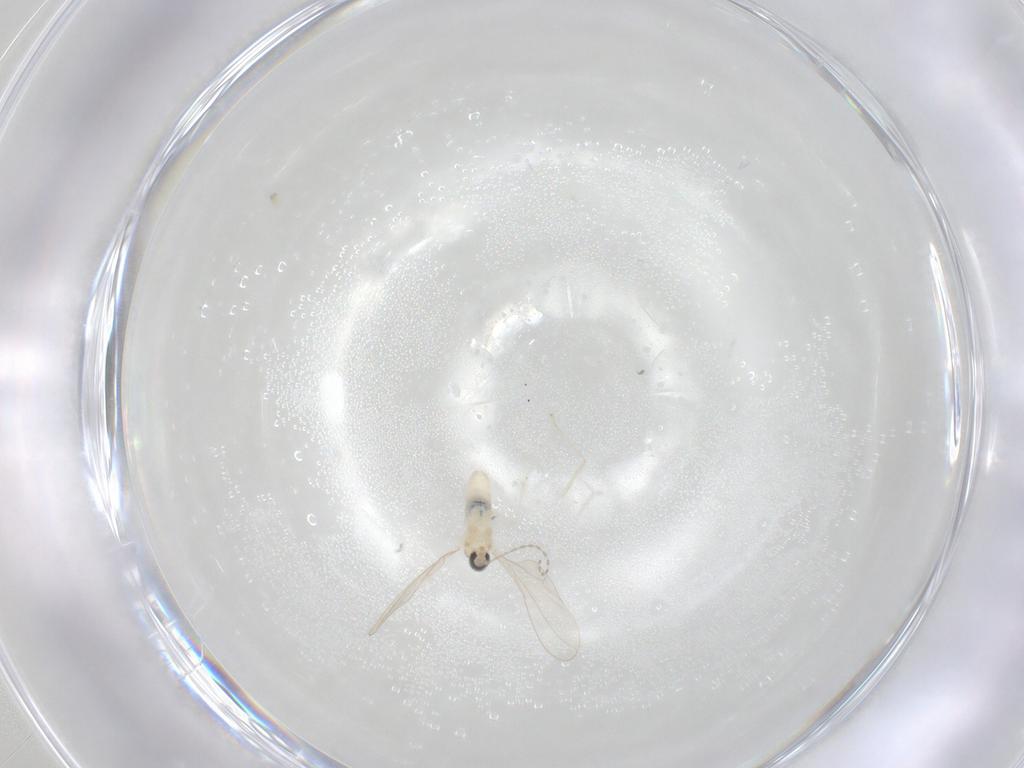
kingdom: Animalia
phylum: Arthropoda
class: Insecta
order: Diptera
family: Cecidomyiidae
